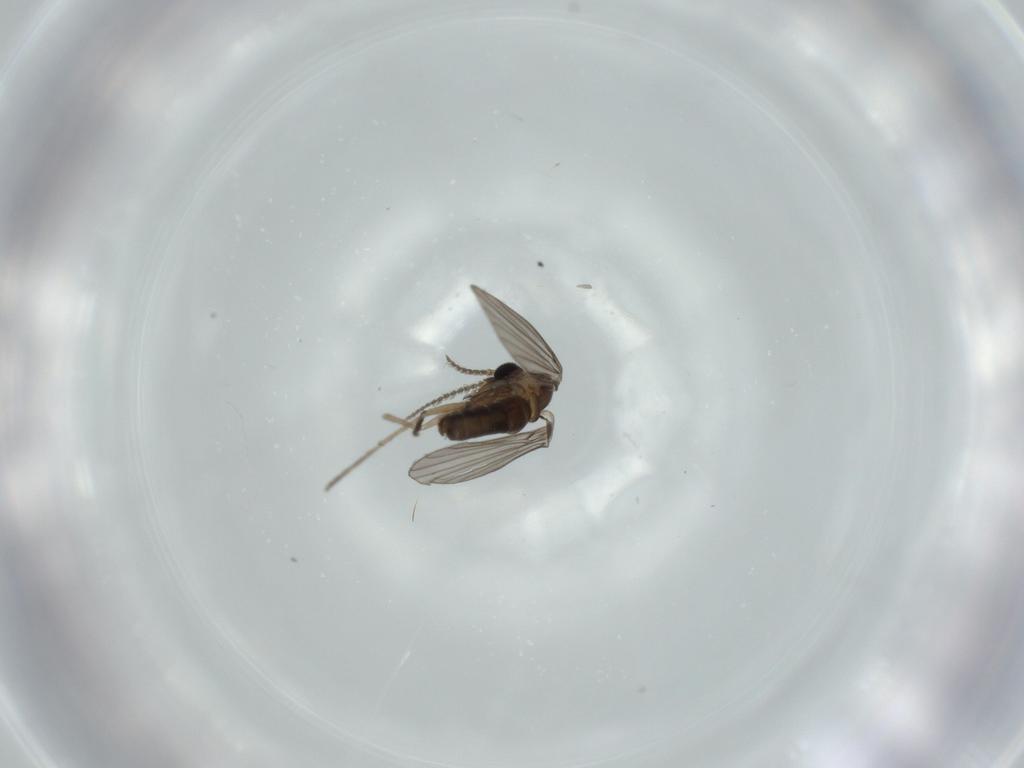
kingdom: Animalia
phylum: Arthropoda
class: Insecta
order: Diptera
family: Psychodidae
